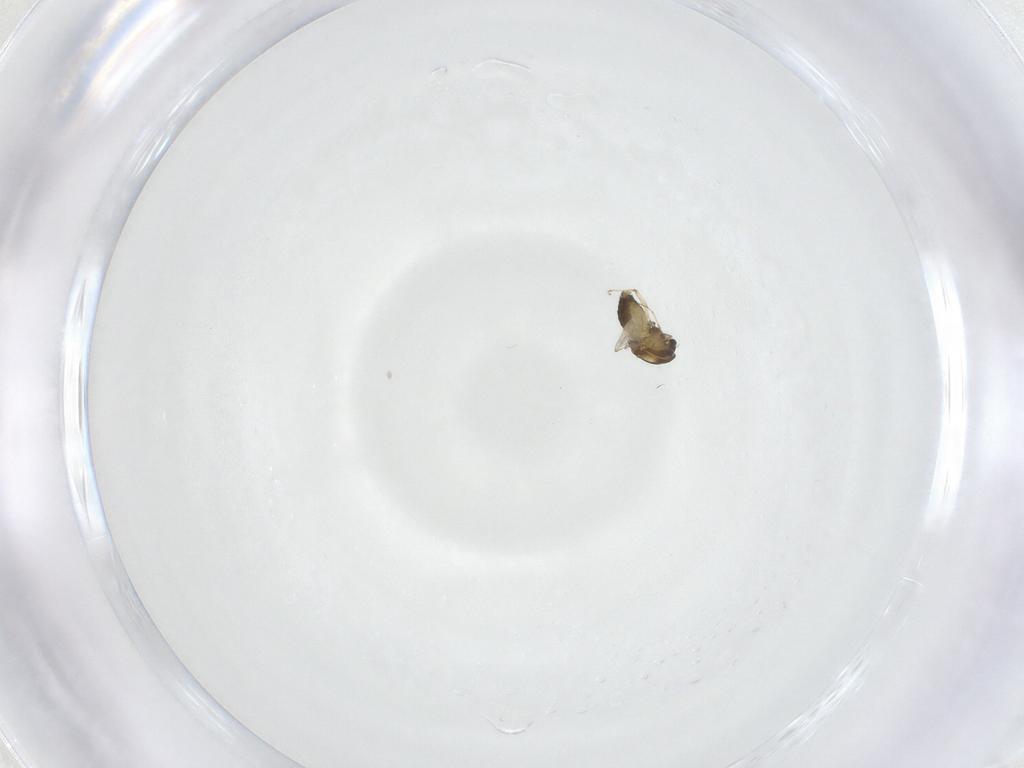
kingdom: Animalia
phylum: Arthropoda
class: Insecta
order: Diptera
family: Chironomidae
